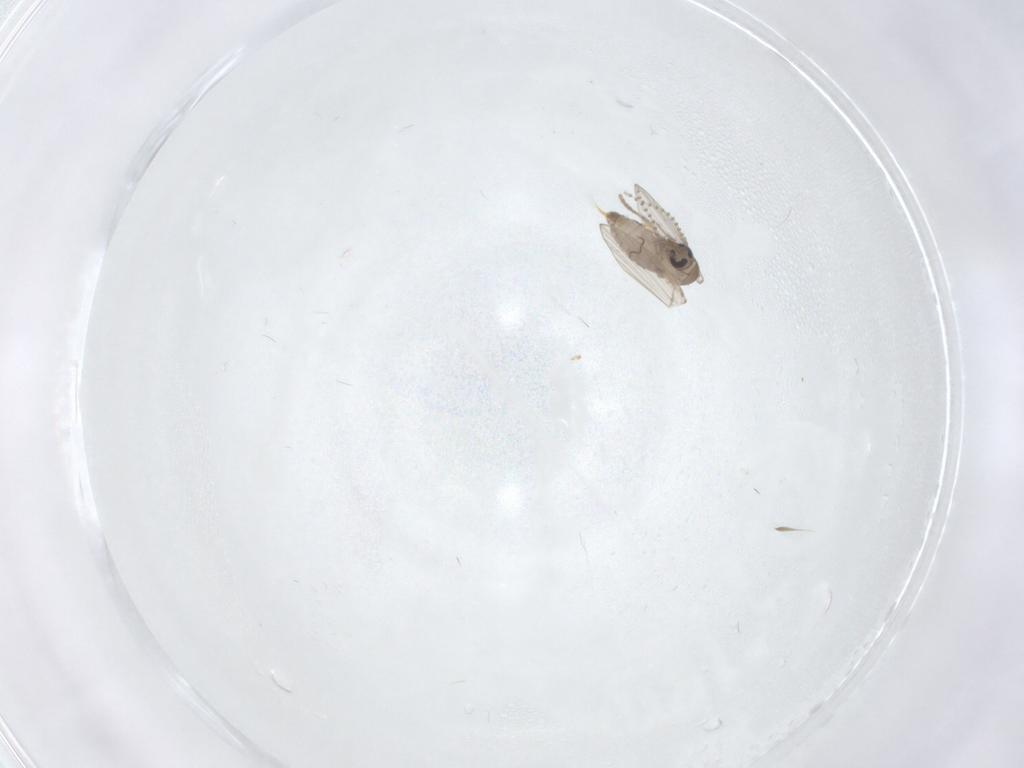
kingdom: Animalia
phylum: Arthropoda
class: Insecta
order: Diptera
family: Psychodidae
